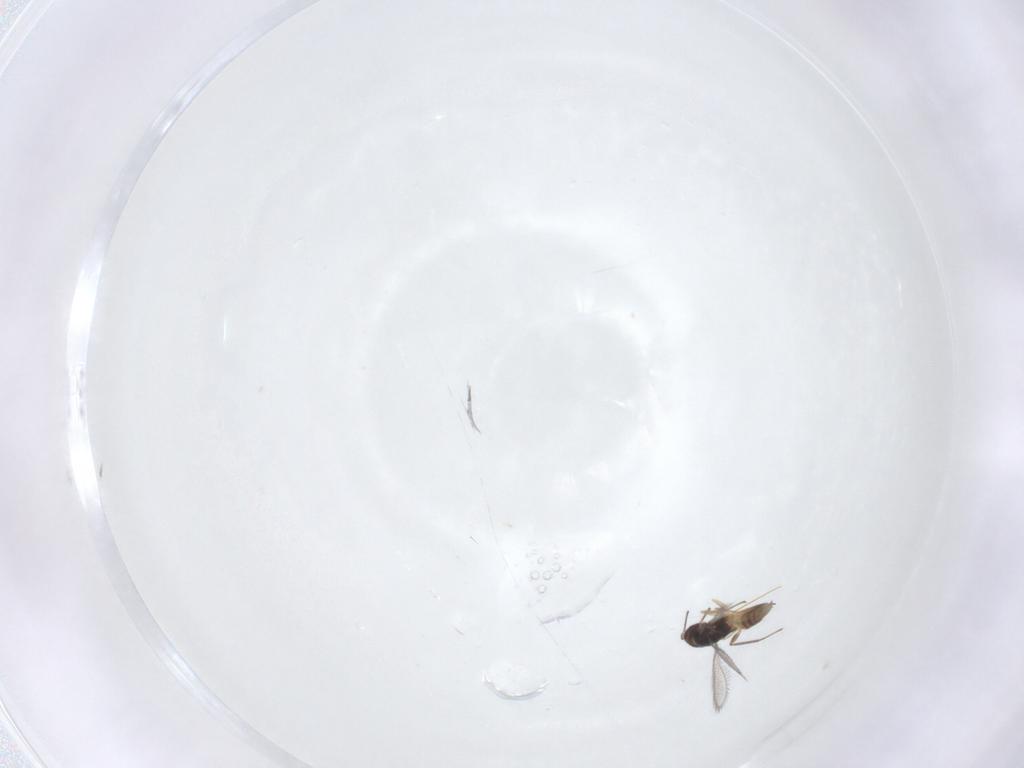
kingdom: Animalia
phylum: Arthropoda
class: Insecta
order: Hymenoptera
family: Mymaridae
